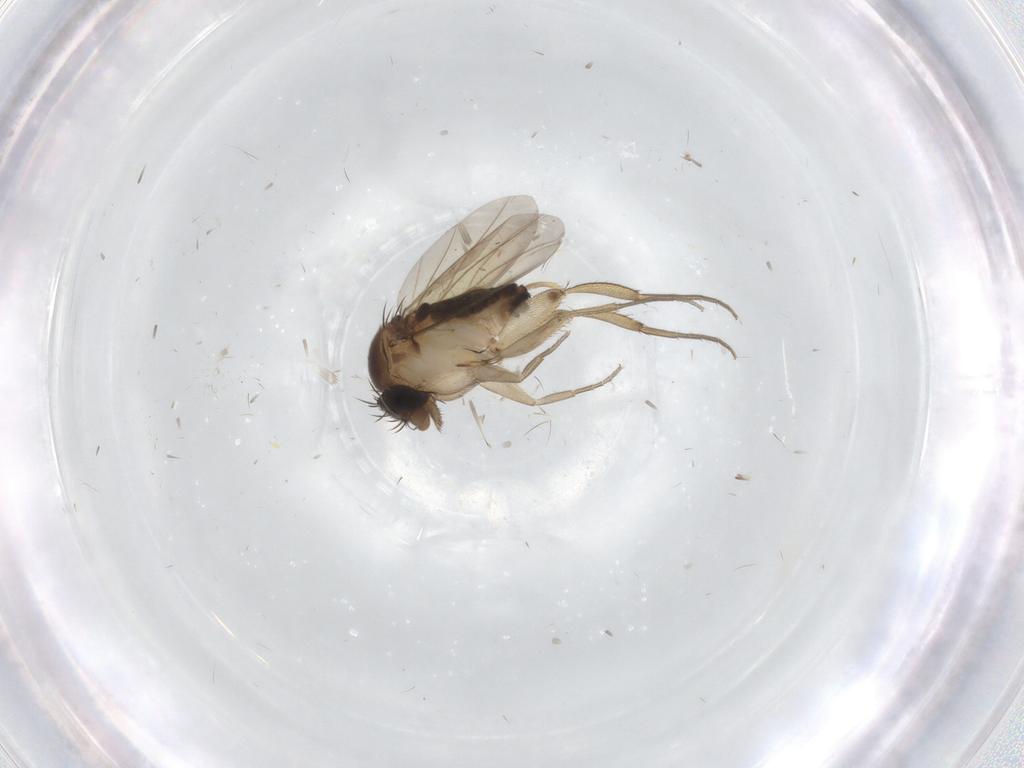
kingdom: Animalia
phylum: Arthropoda
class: Insecta
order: Diptera
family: Phoridae
